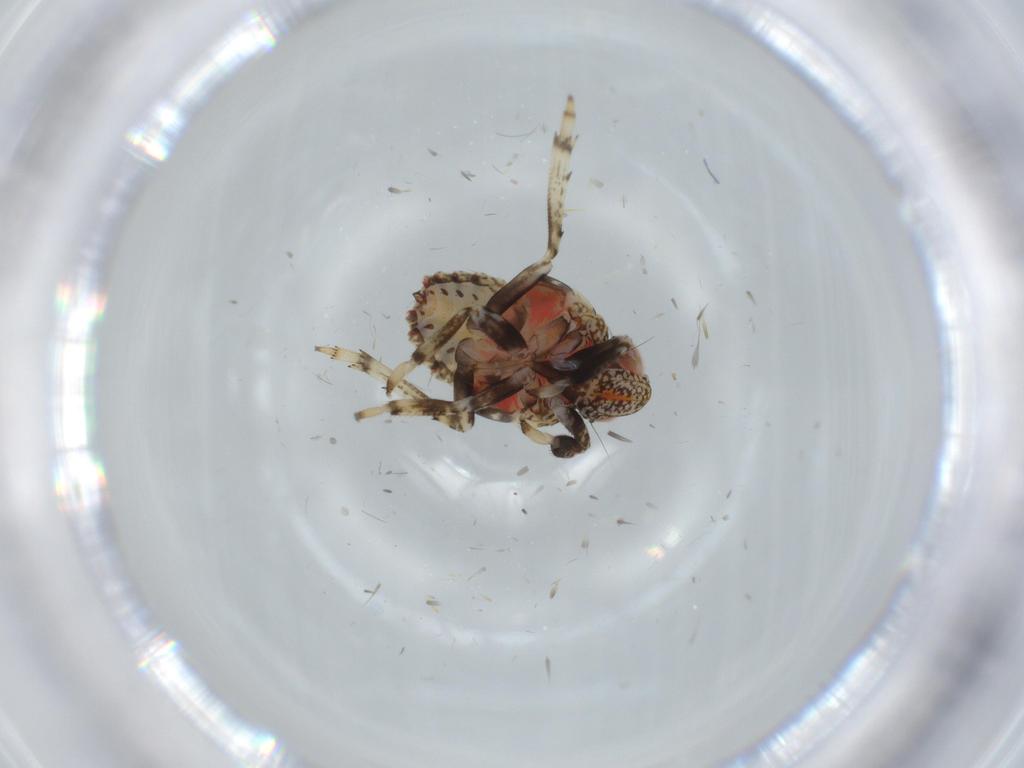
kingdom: Animalia
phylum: Arthropoda
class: Insecta
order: Hemiptera
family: Issidae
